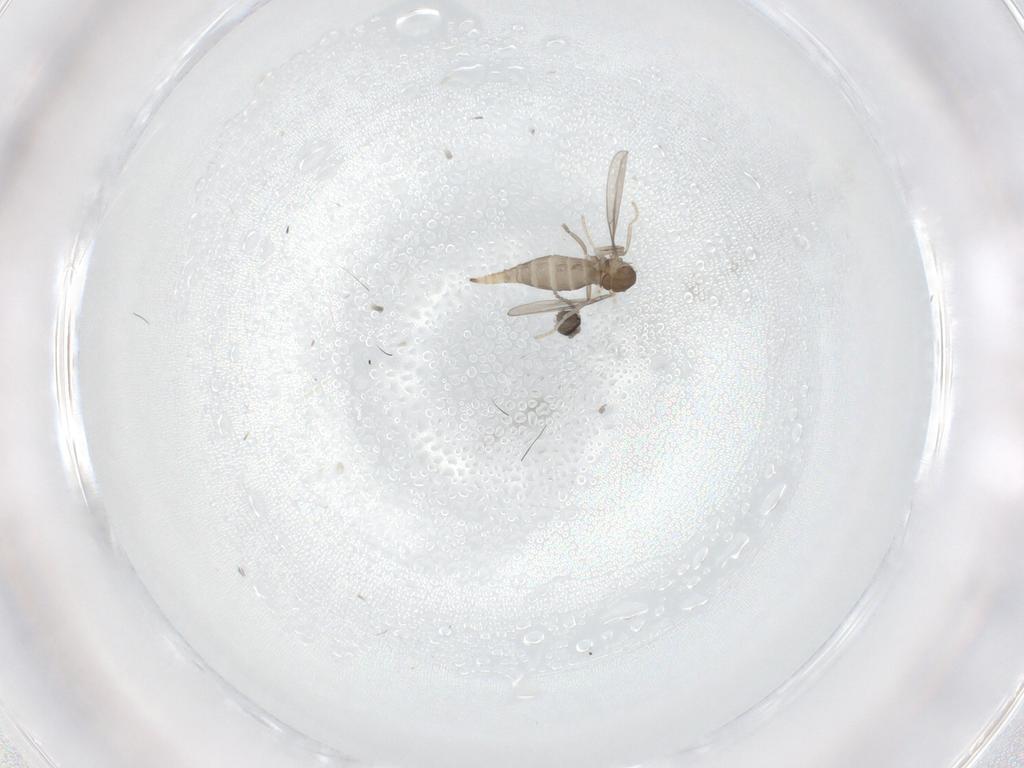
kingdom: Animalia
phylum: Arthropoda
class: Insecta
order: Diptera
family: Cecidomyiidae
